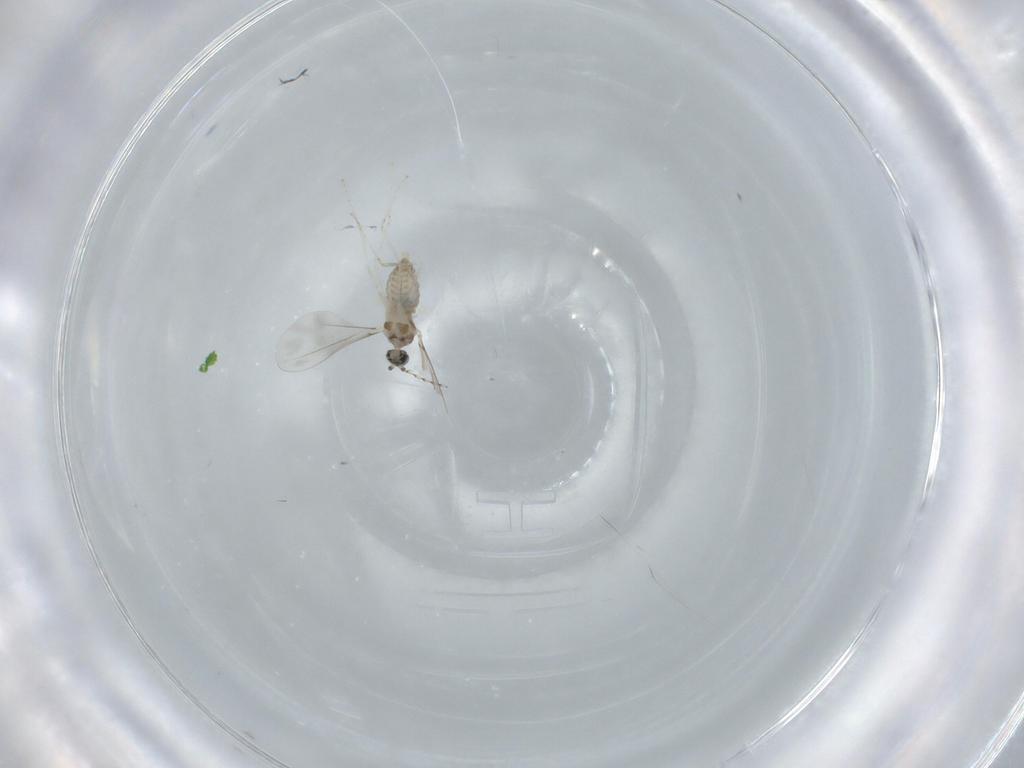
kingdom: Animalia
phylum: Arthropoda
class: Insecta
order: Diptera
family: Cecidomyiidae
